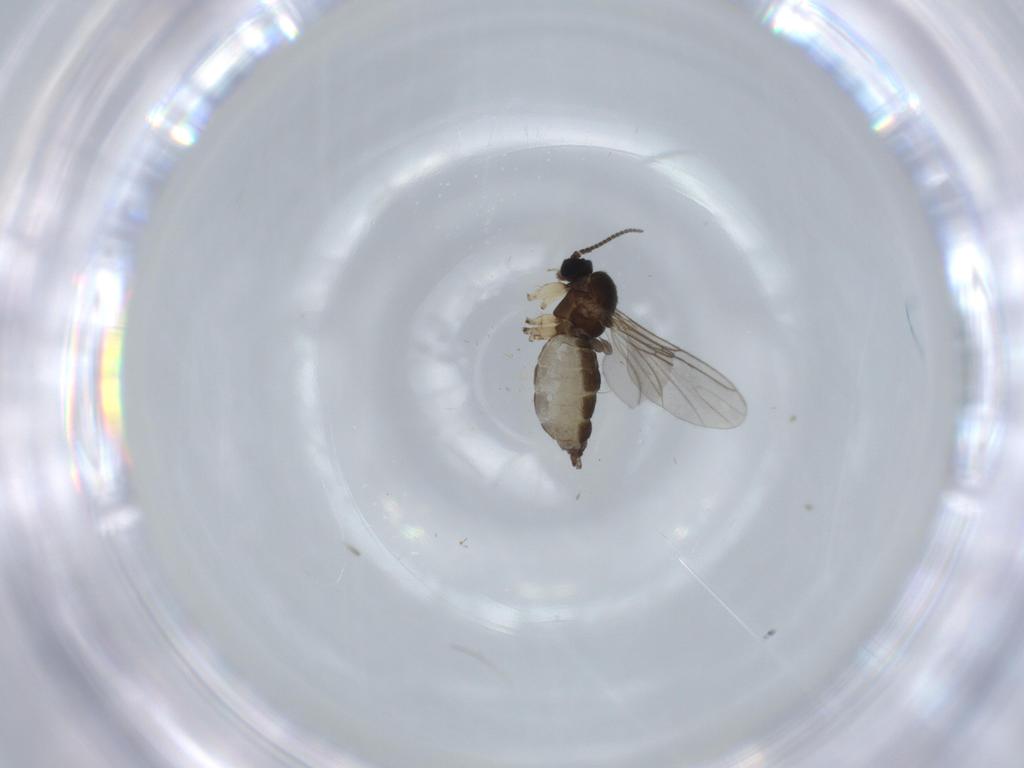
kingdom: Animalia
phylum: Arthropoda
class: Insecta
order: Diptera
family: Sciaridae
